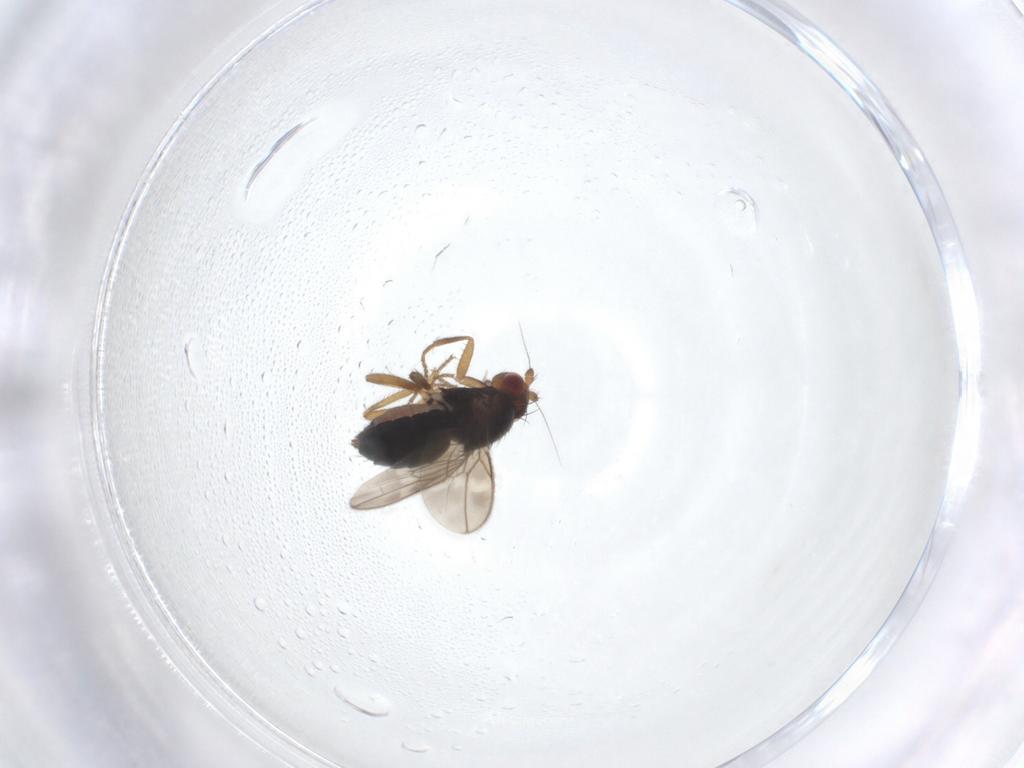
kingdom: Animalia
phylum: Arthropoda
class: Insecta
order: Diptera
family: Sphaeroceridae
